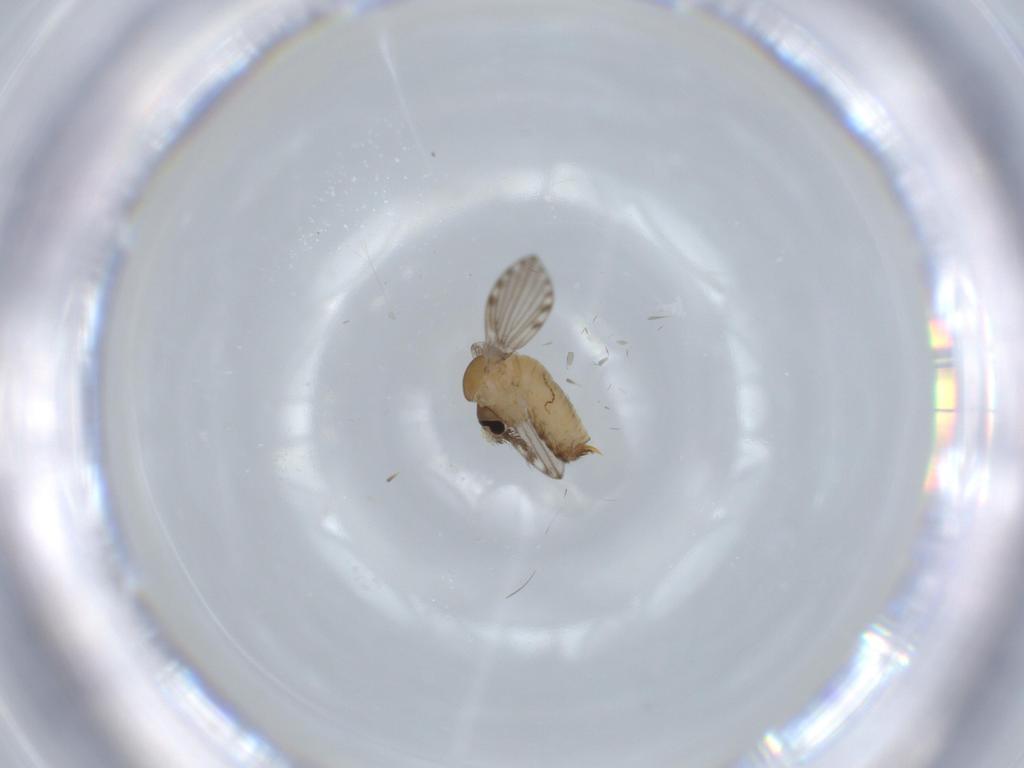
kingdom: Animalia
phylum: Arthropoda
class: Insecta
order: Diptera
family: Psychodidae
